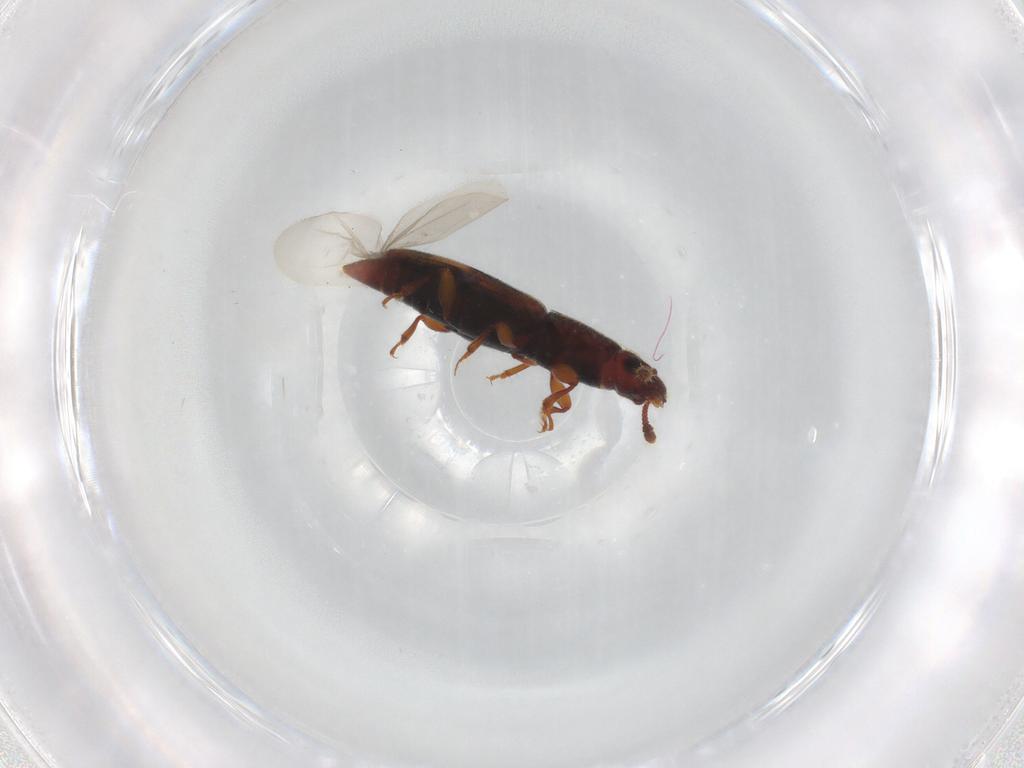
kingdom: Animalia
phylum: Arthropoda
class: Insecta
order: Coleoptera
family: Monotomidae
